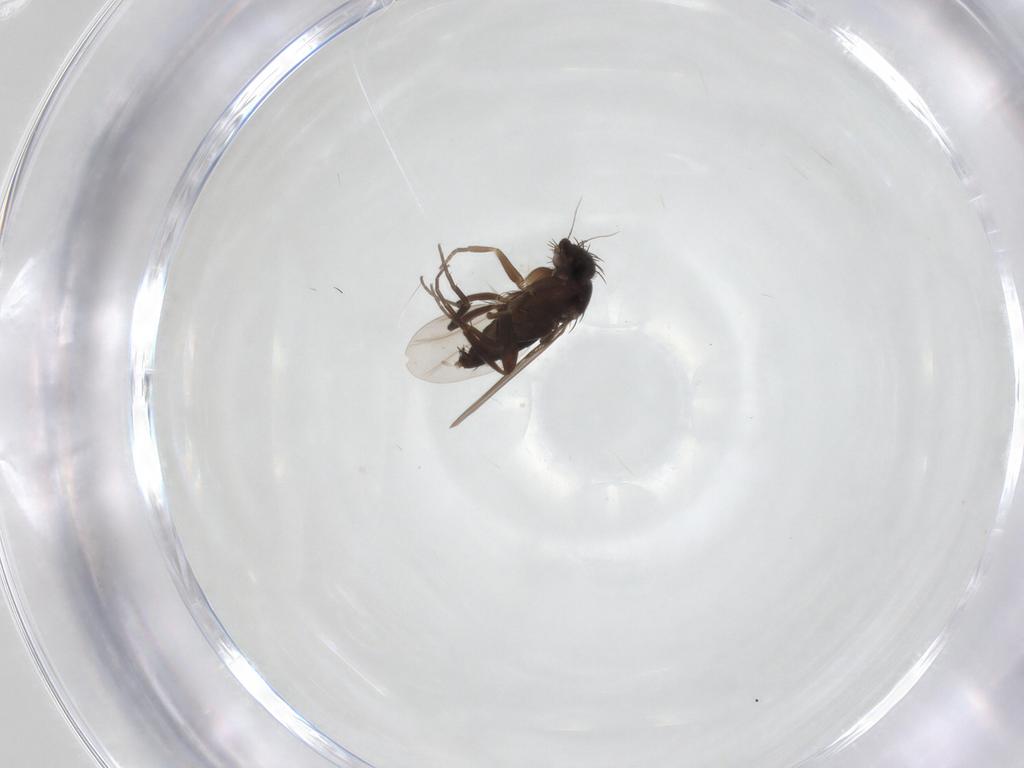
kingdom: Animalia
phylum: Arthropoda
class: Insecta
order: Diptera
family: Phoridae
